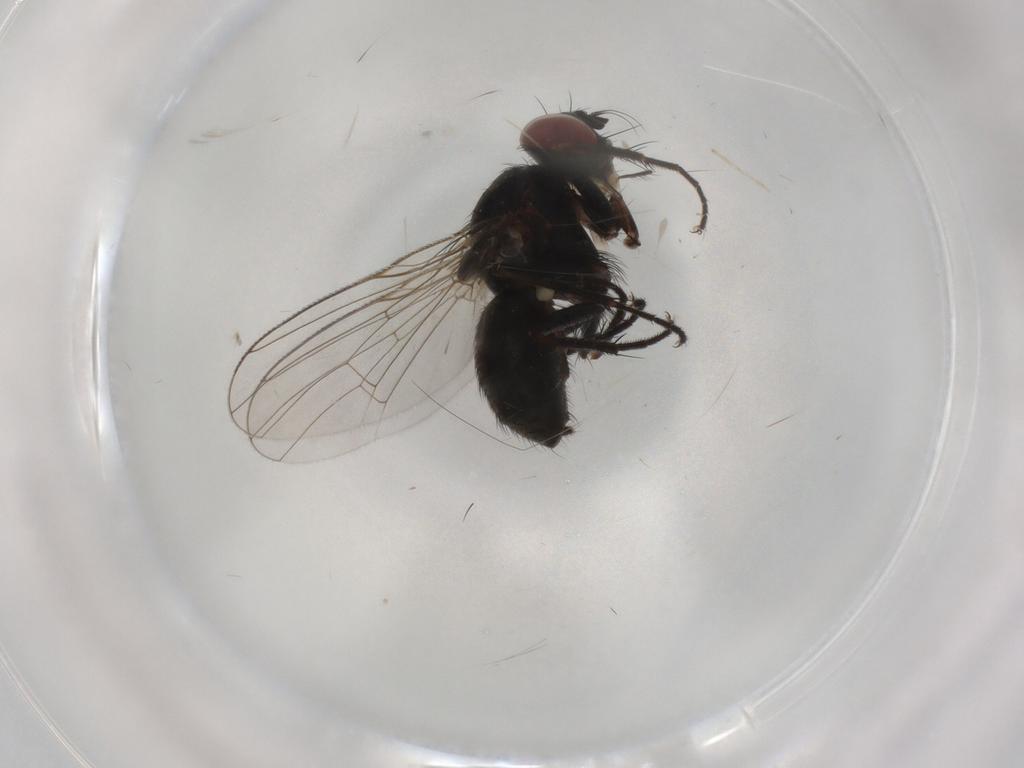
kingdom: Animalia
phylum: Arthropoda
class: Insecta
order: Diptera
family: Muscidae
